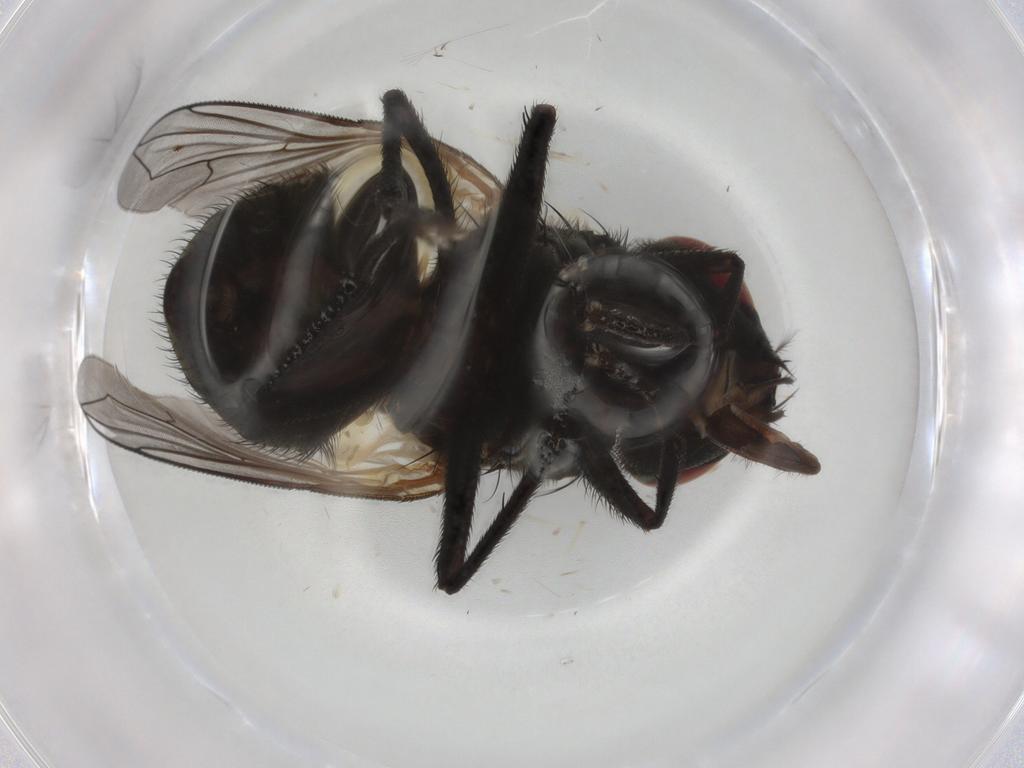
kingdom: Animalia
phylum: Arthropoda
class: Insecta
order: Diptera
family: Muscidae
